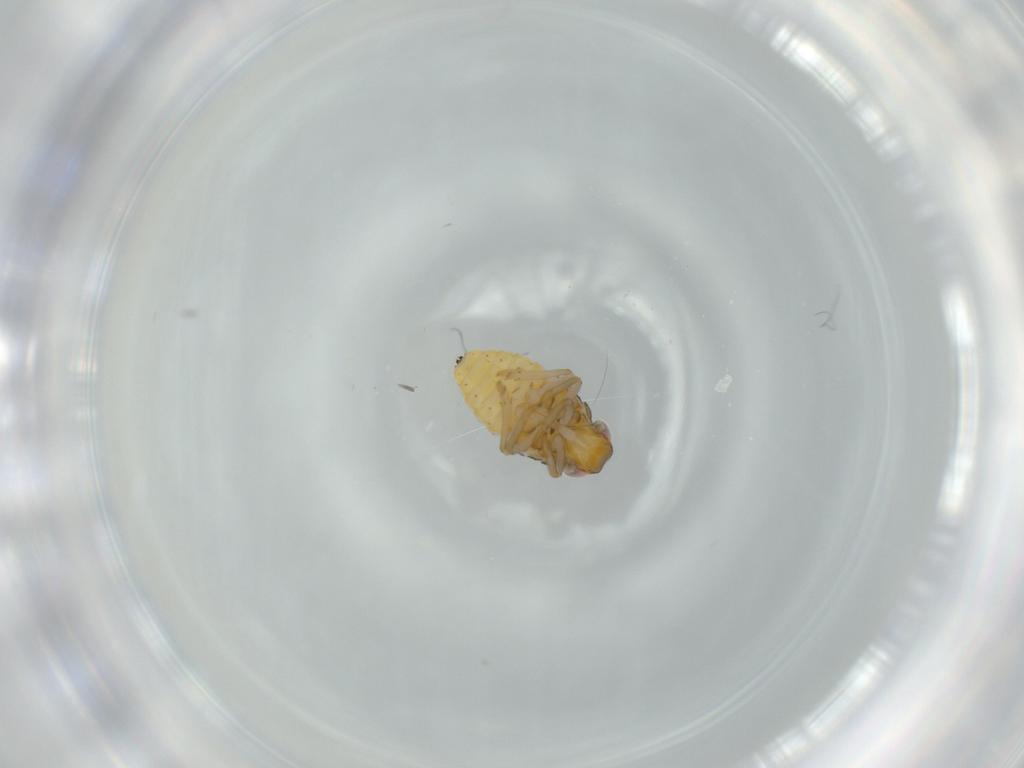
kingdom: Animalia
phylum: Arthropoda
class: Insecta
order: Hemiptera
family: Issidae
